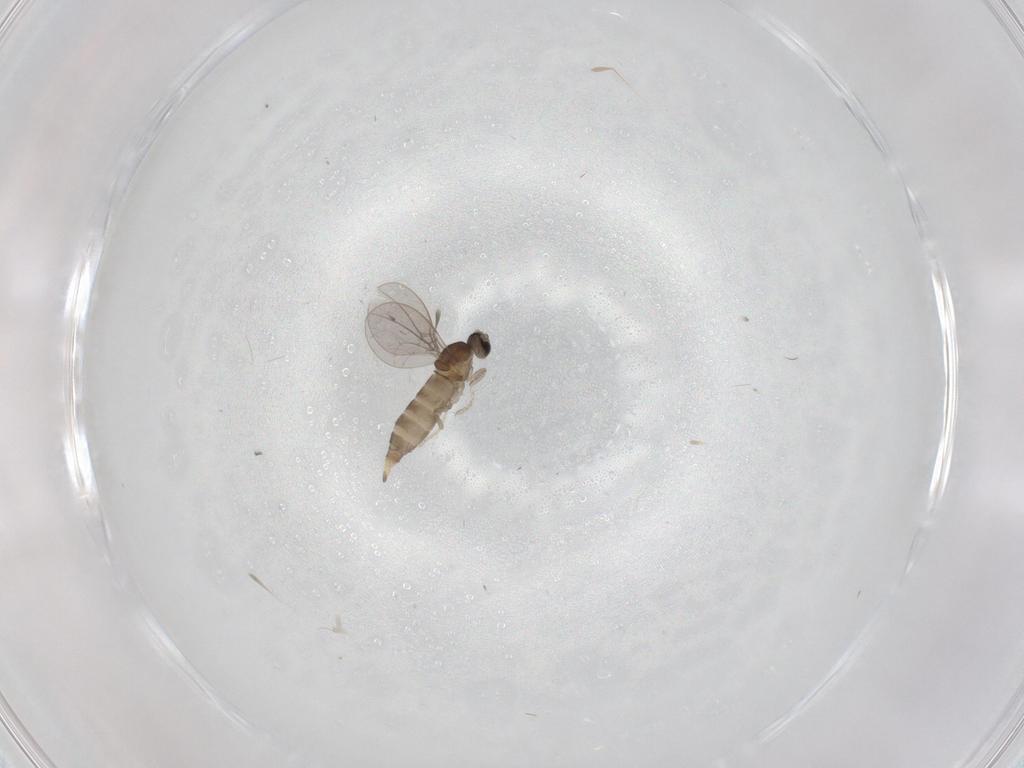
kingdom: Animalia
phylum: Arthropoda
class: Insecta
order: Diptera
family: Cecidomyiidae
